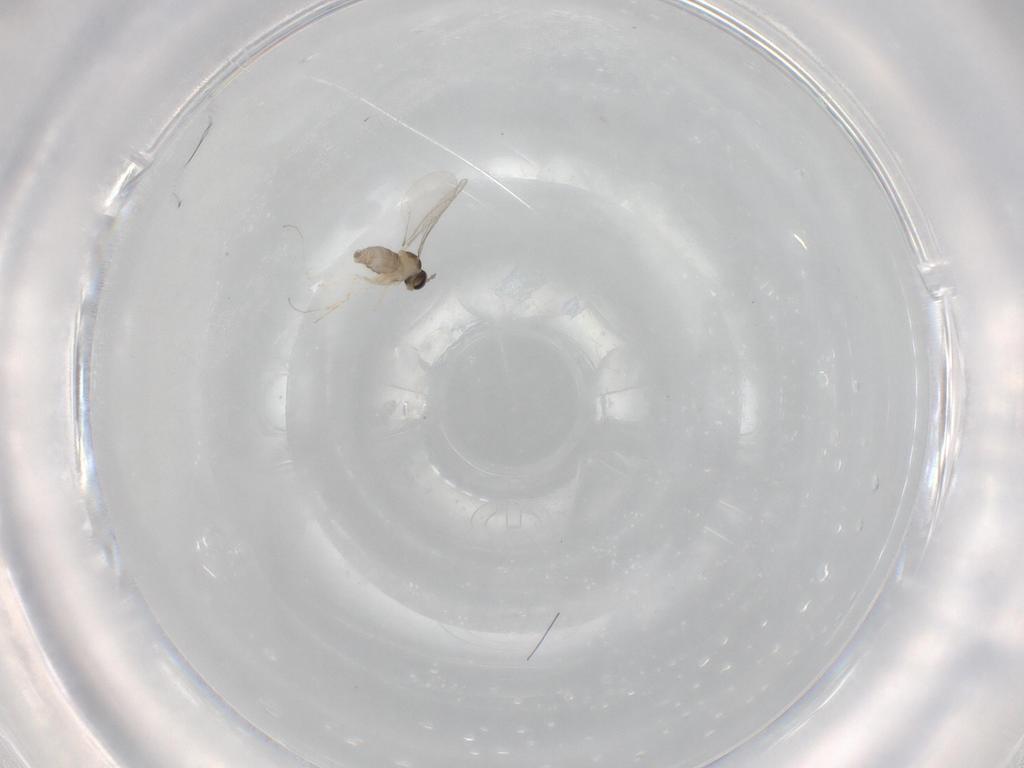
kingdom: Animalia
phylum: Arthropoda
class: Insecta
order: Diptera
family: Cecidomyiidae
